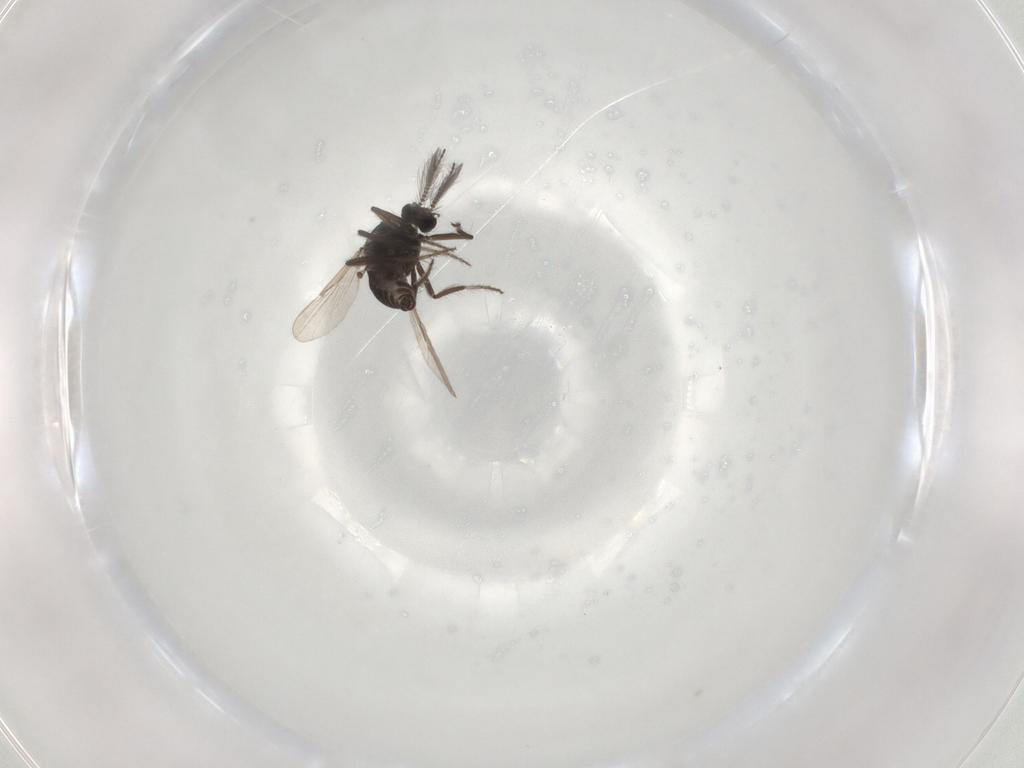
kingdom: Animalia
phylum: Arthropoda
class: Insecta
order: Diptera
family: Ceratopogonidae
